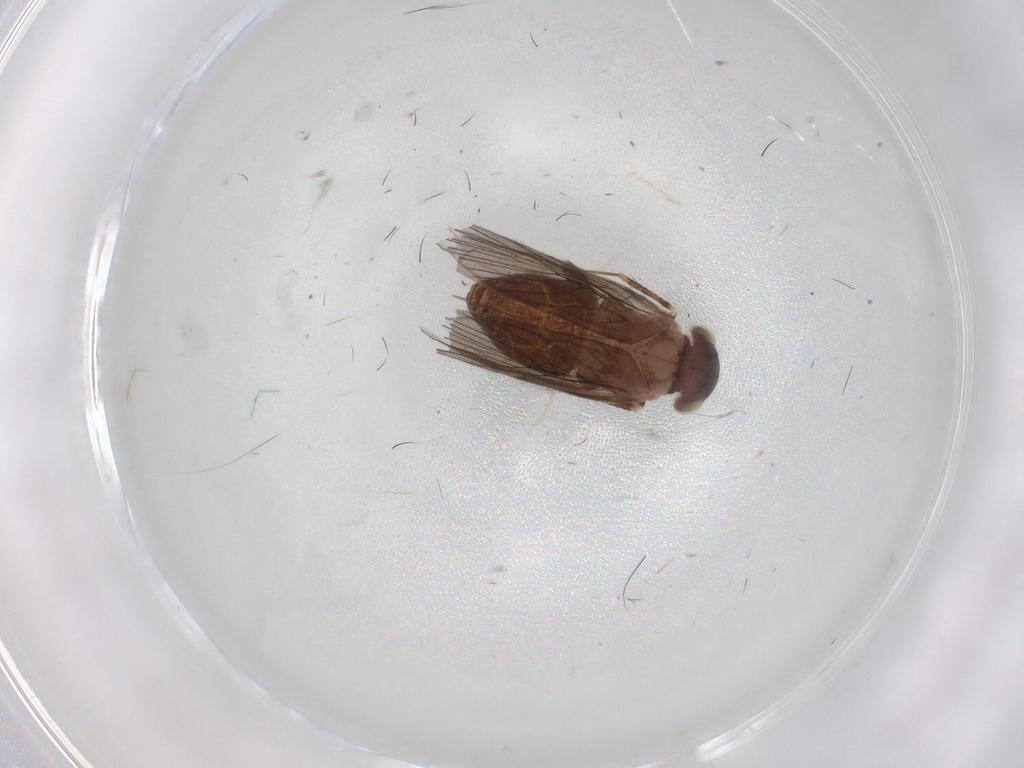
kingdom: Animalia
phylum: Arthropoda
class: Insecta
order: Psocodea
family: Lepidopsocidae
